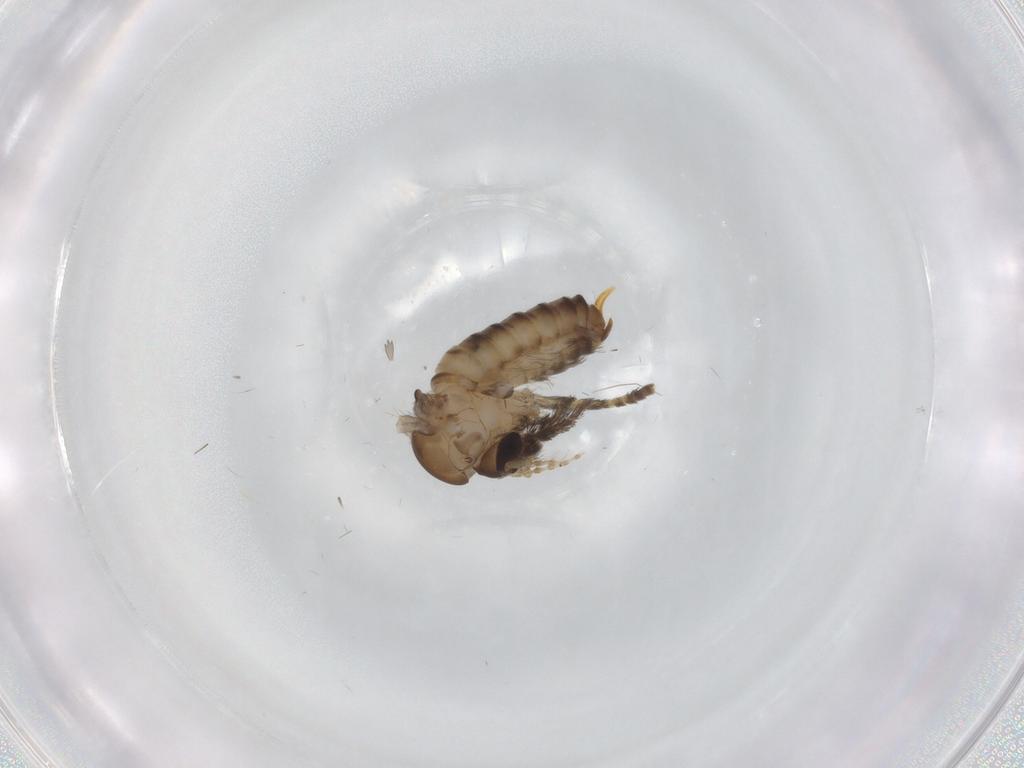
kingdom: Animalia
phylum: Arthropoda
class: Insecta
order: Diptera
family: Psychodidae
